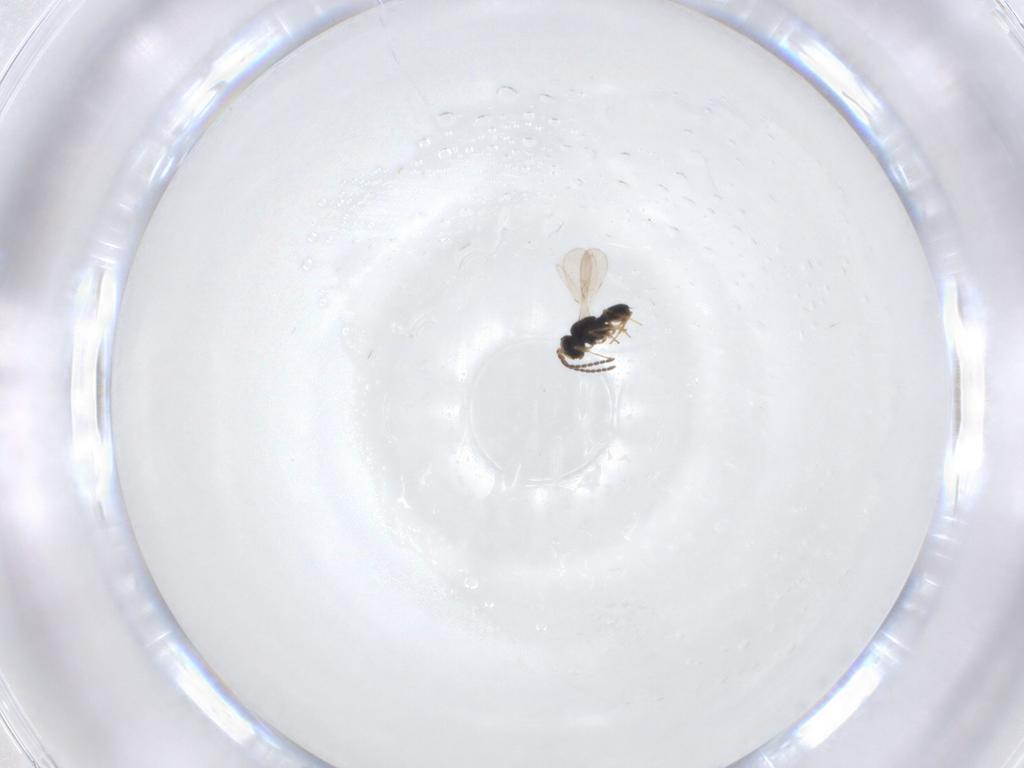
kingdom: Animalia
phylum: Arthropoda
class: Insecta
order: Hymenoptera
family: Scelionidae
